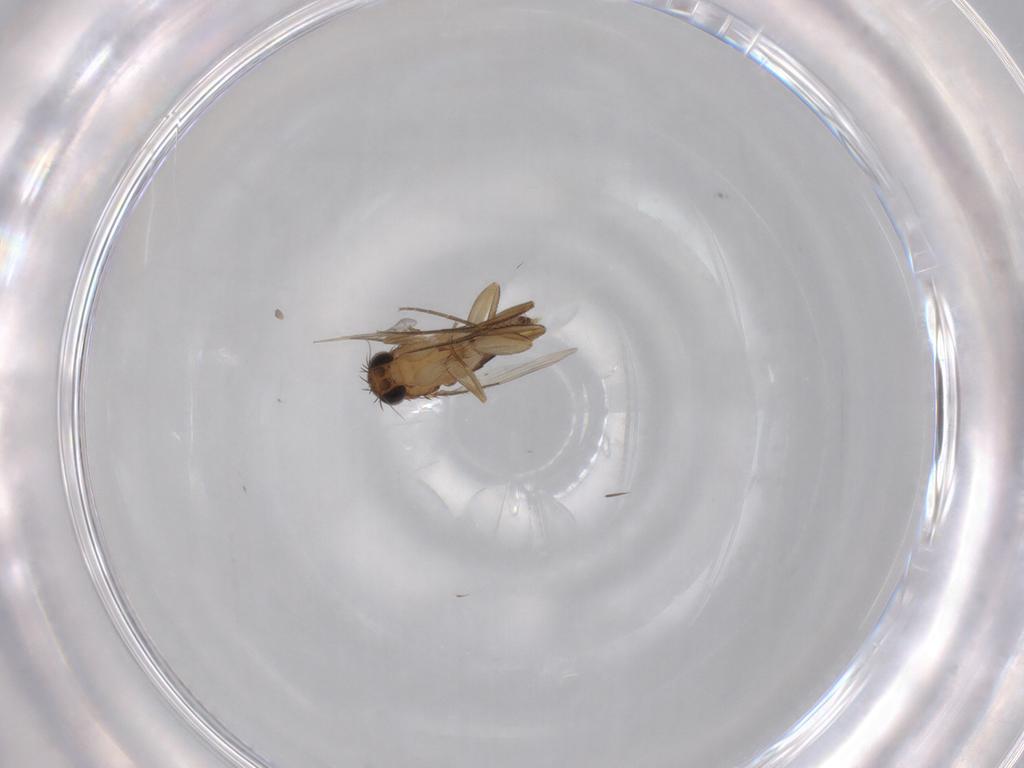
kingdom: Animalia
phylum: Arthropoda
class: Insecta
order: Diptera
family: Phoridae
